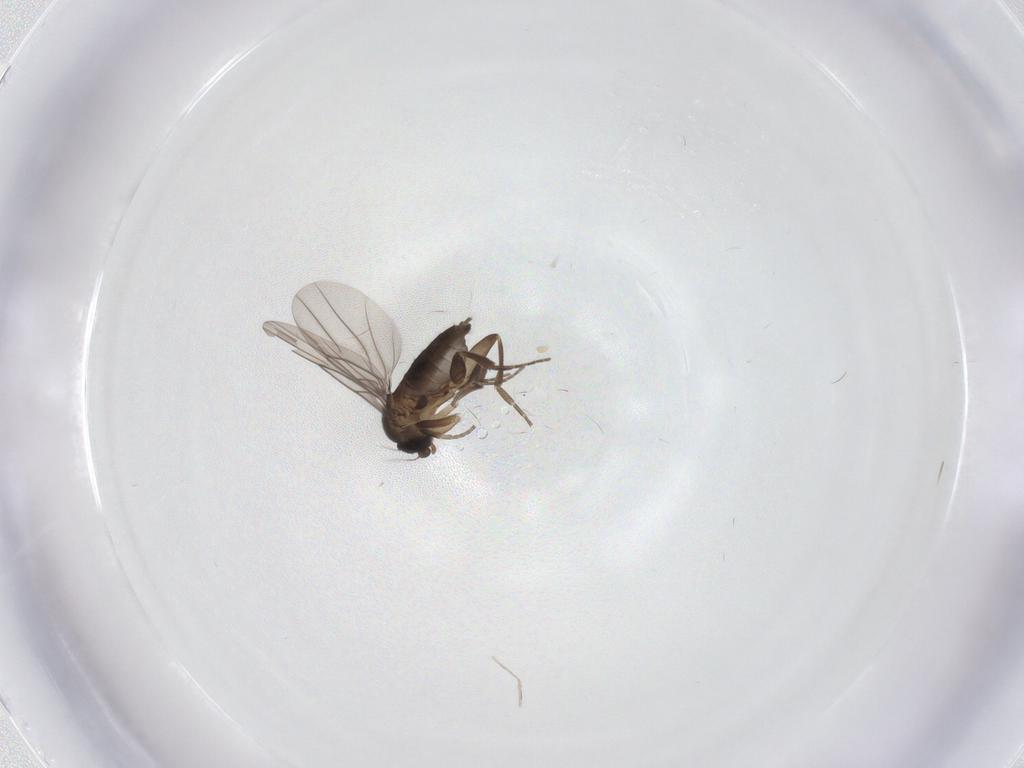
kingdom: Animalia
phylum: Arthropoda
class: Insecta
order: Diptera
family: Phoridae
